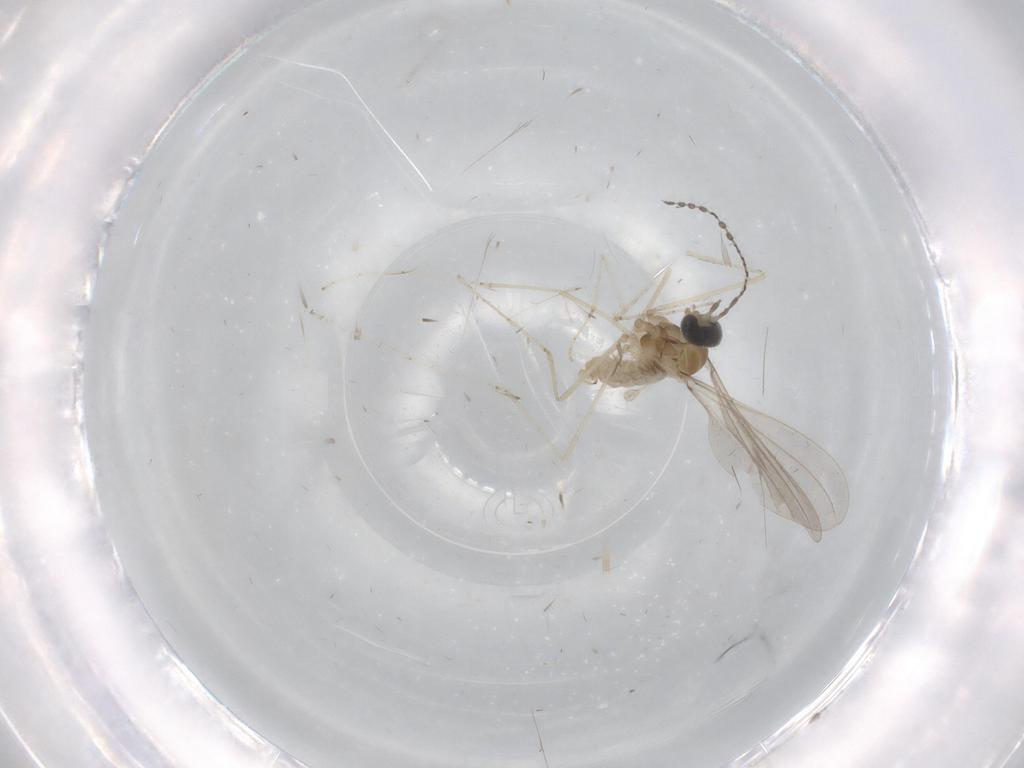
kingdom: Animalia
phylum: Arthropoda
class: Insecta
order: Diptera
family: Cecidomyiidae
